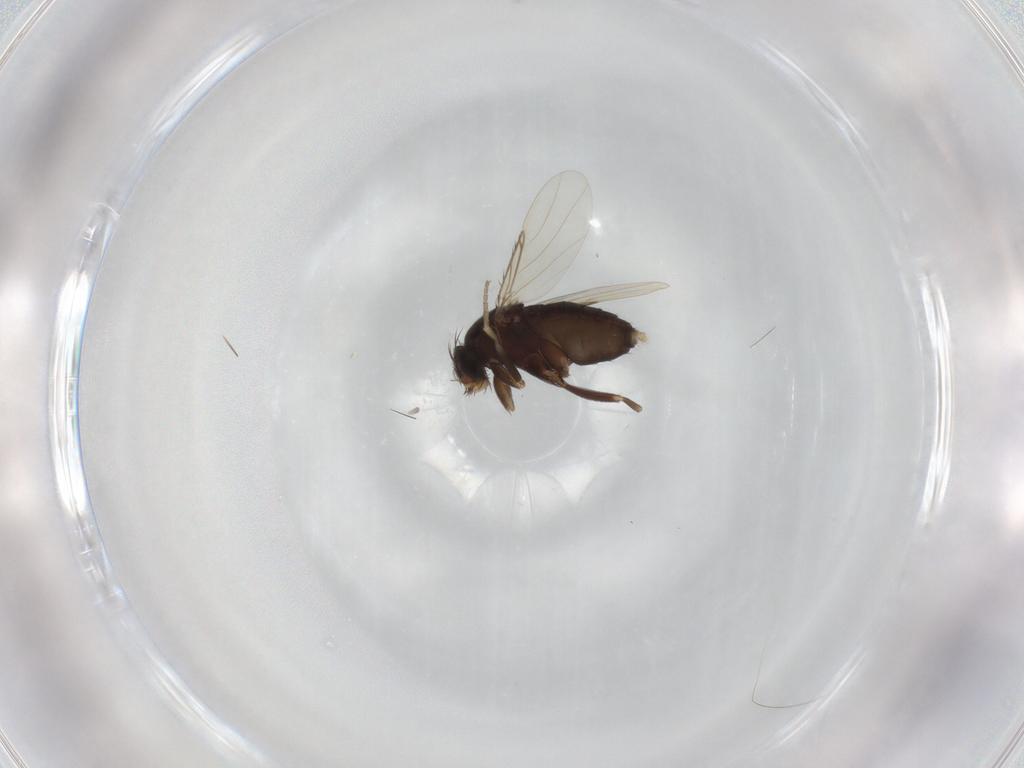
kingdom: Animalia
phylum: Arthropoda
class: Insecta
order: Diptera
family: Phoridae
